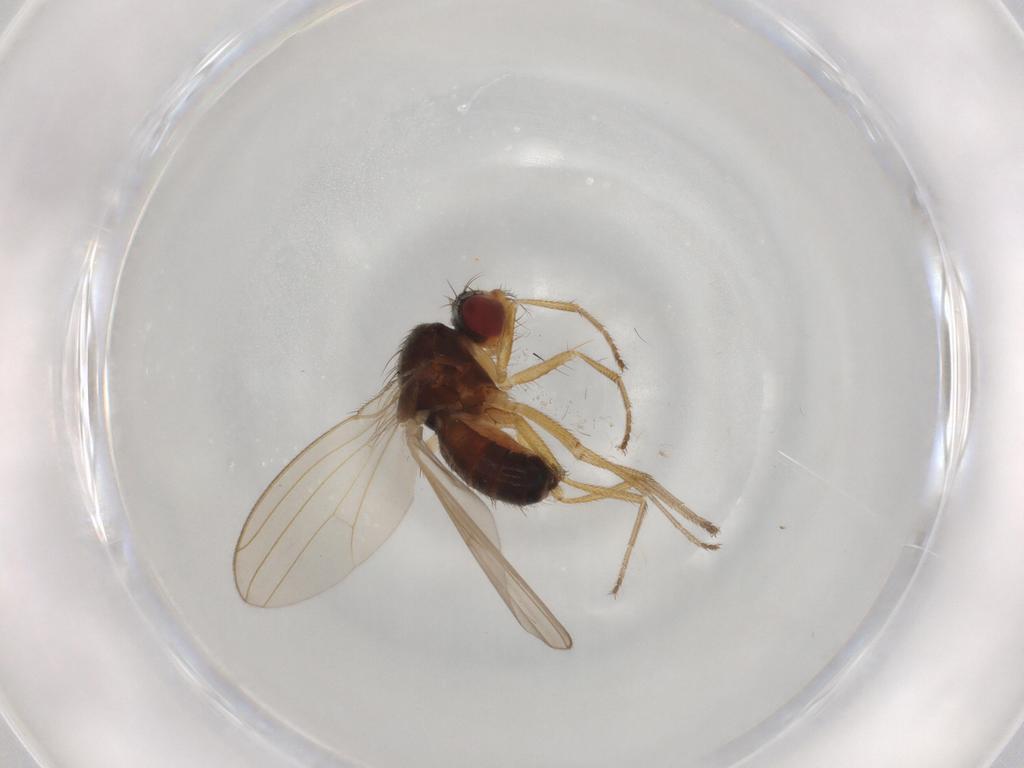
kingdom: Animalia
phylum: Arthropoda
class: Insecta
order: Diptera
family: Drosophilidae
